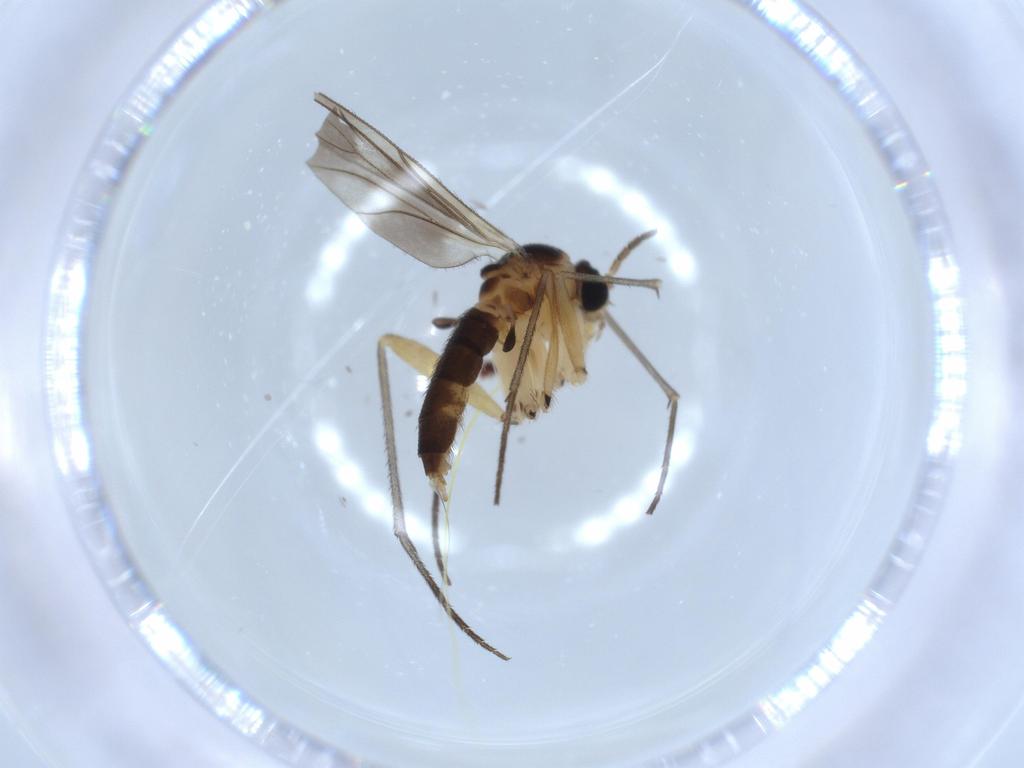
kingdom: Animalia
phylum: Arthropoda
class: Insecta
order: Diptera
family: Sciaridae
